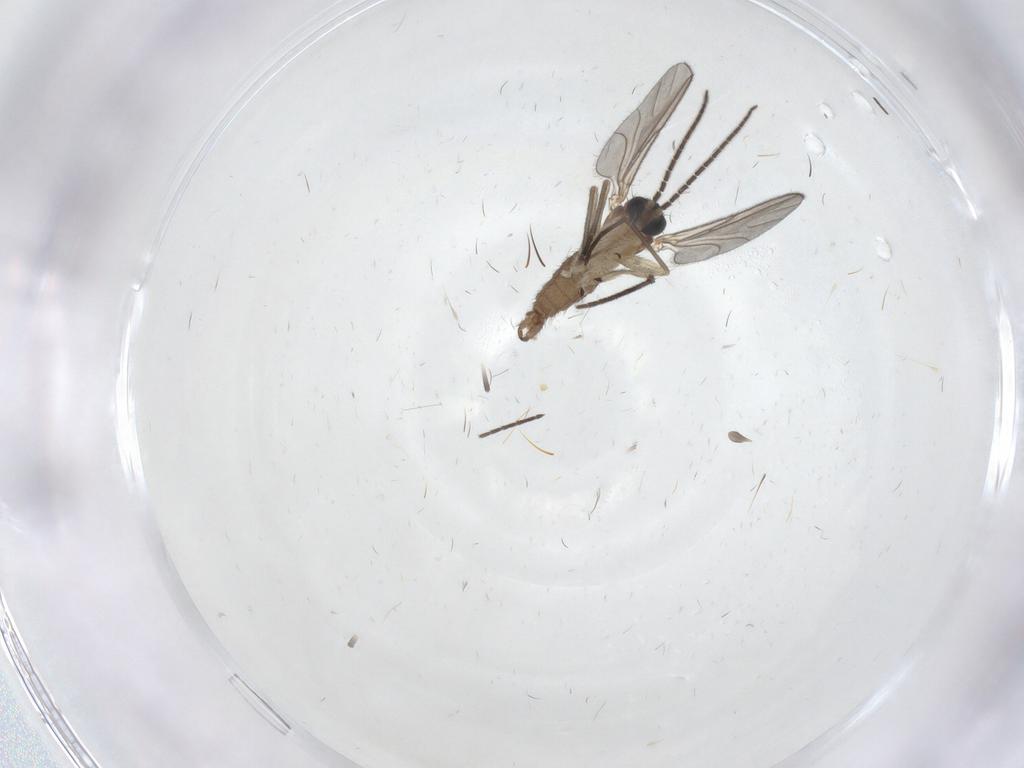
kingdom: Animalia
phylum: Arthropoda
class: Insecta
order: Diptera
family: Sciaridae
